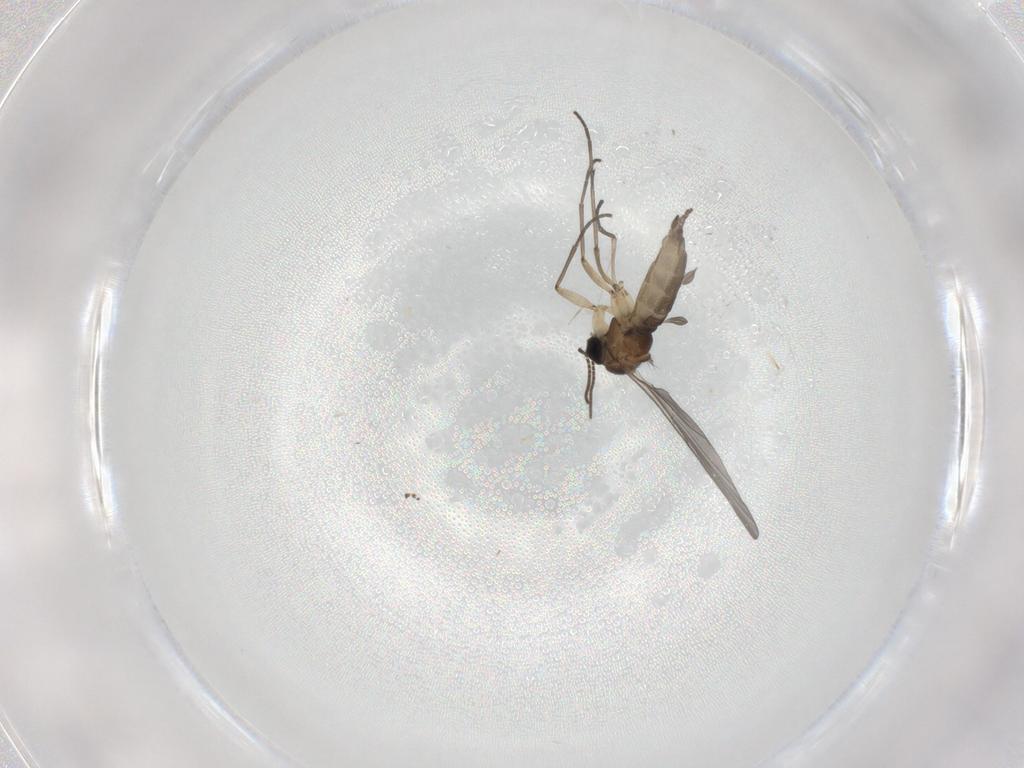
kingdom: Animalia
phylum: Arthropoda
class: Insecta
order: Diptera
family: Sciaridae
